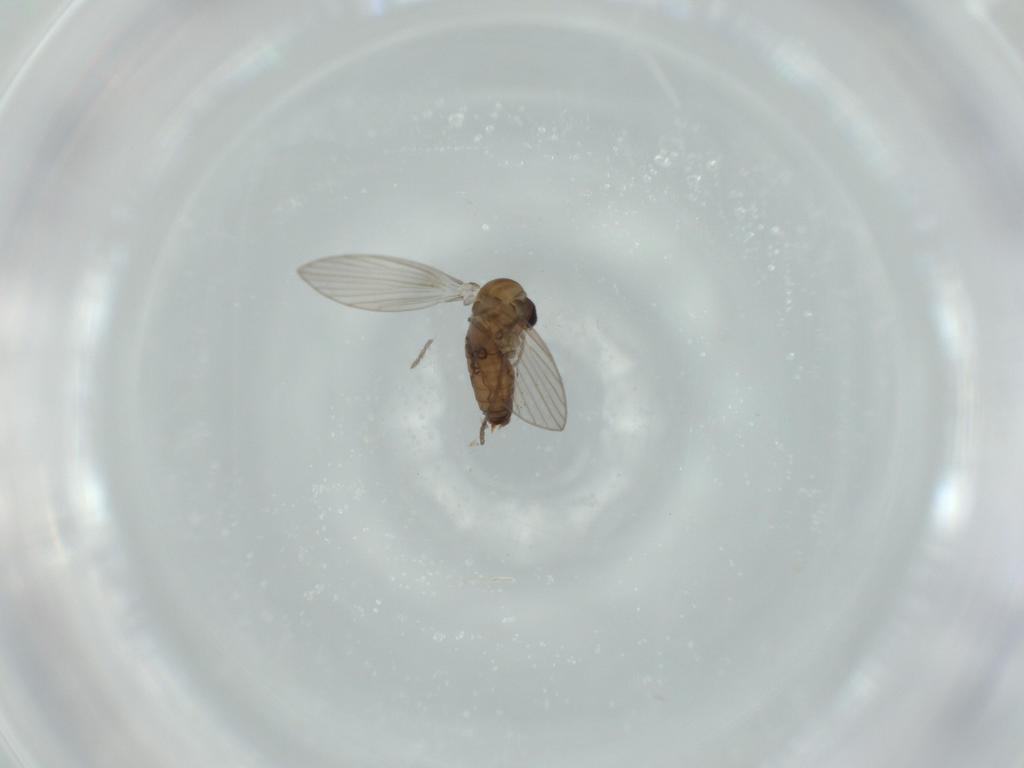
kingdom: Animalia
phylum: Arthropoda
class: Insecta
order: Diptera
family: Psychodidae
